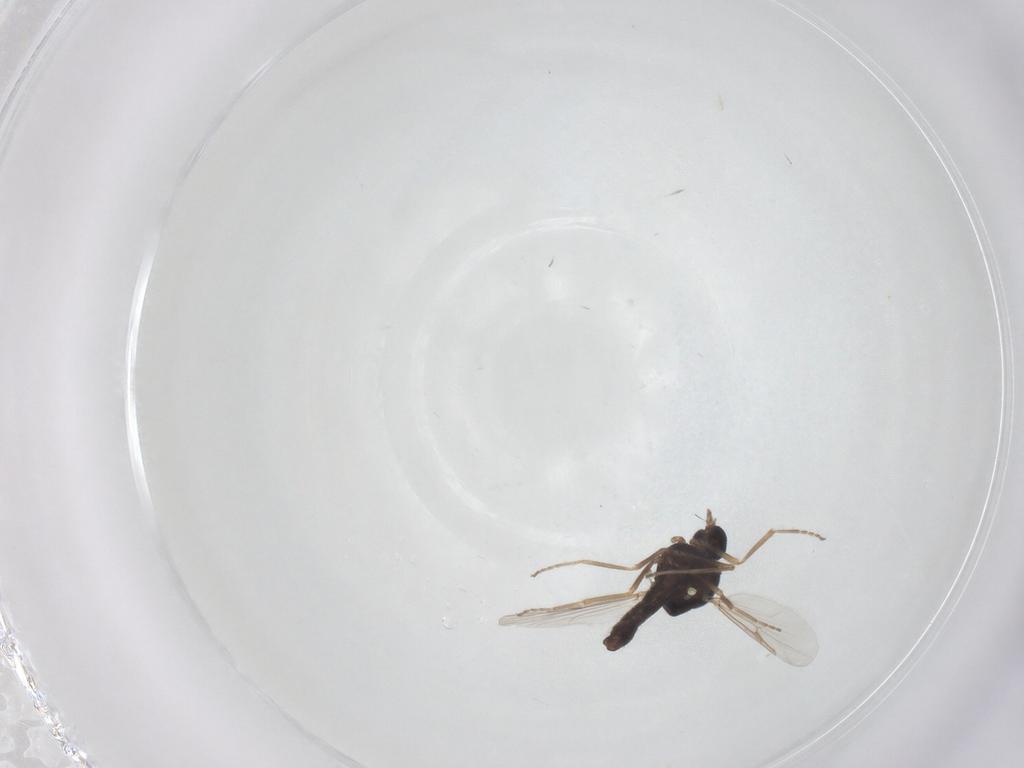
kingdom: Animalia
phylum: Arthropoda
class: Insecta
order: Diptera
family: Ceratopogonidae
